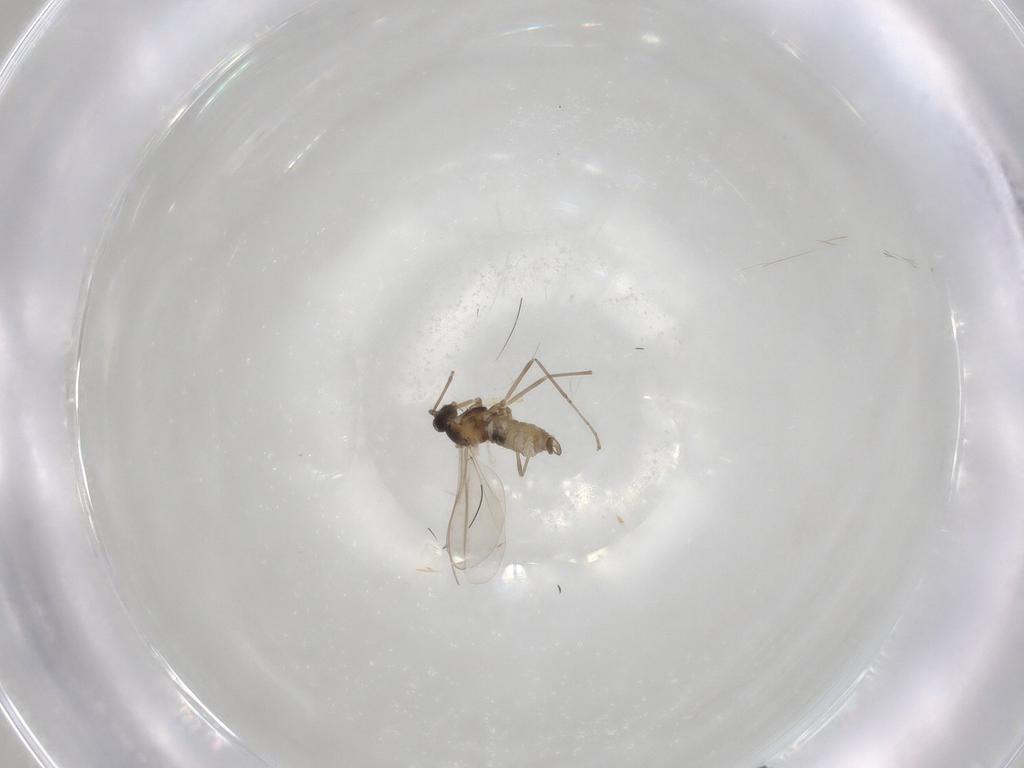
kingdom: Animalia
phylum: Arthropoda
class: Insecta
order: Diptera
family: Cecidomyiidae
